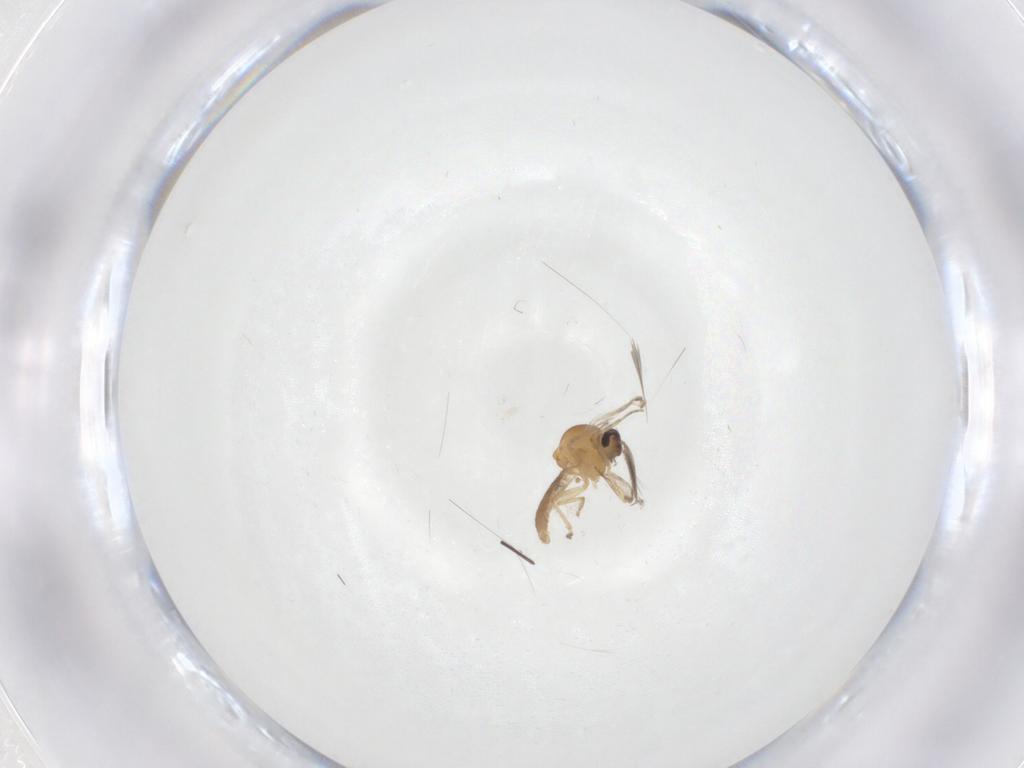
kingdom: Animalia
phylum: Arthropoda
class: Insecta
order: Diptera
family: Ceratopogonidae
